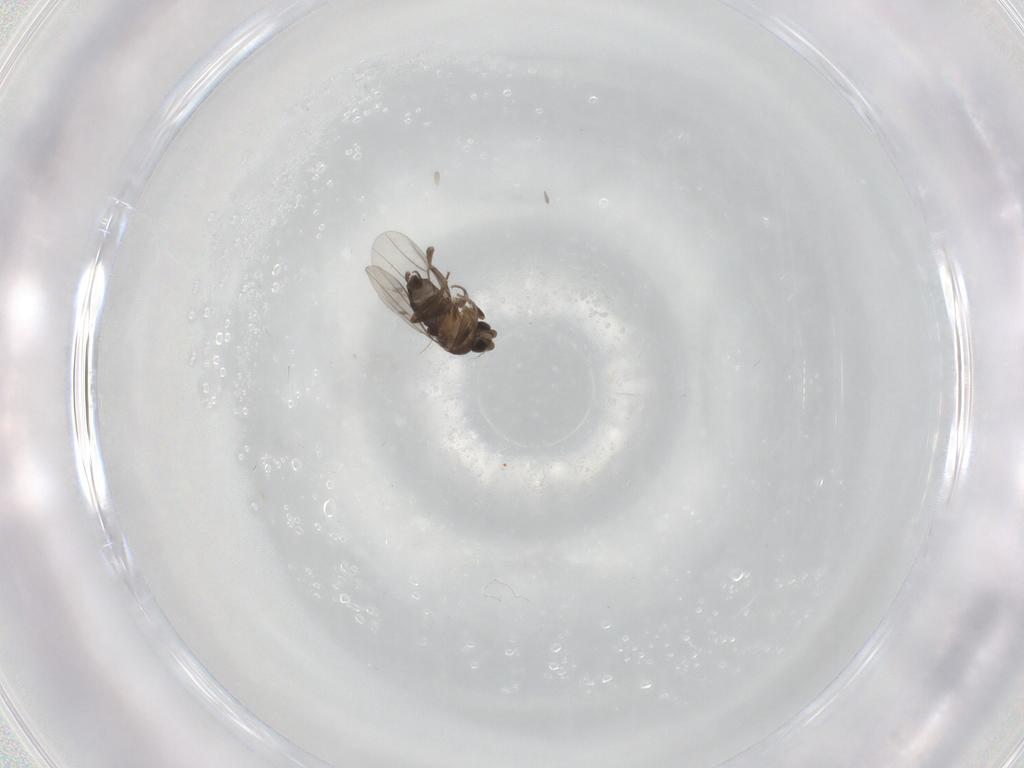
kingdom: Animalia
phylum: Arthropoda
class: Insecta
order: Diptera
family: Phoridae
